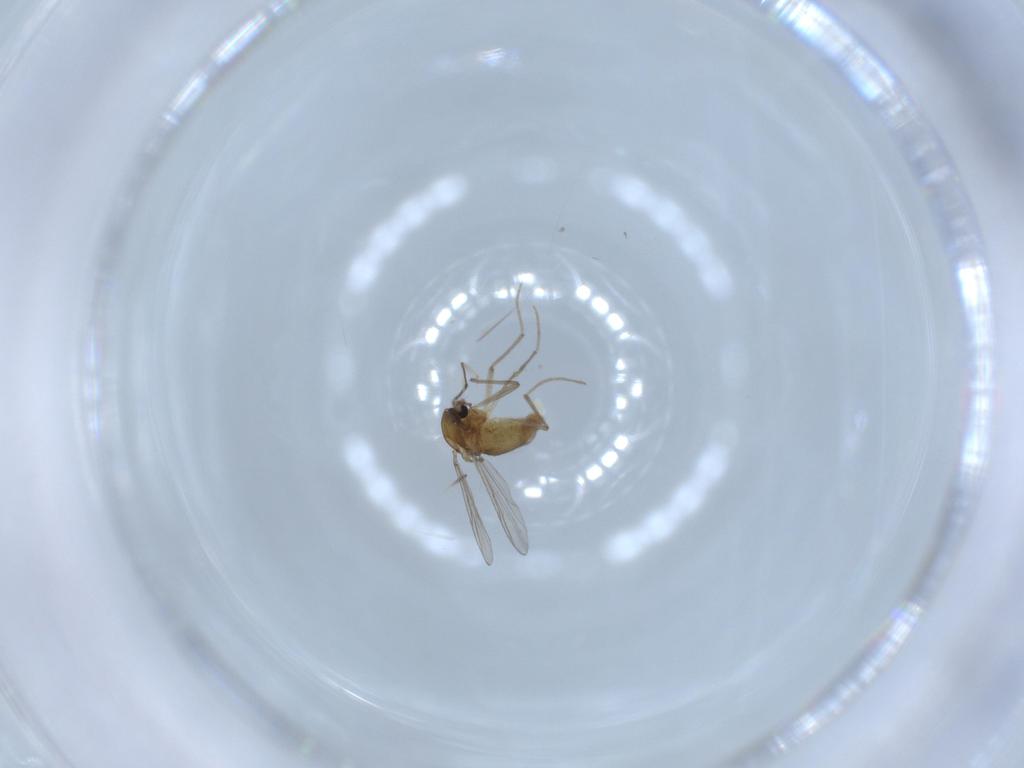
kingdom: Animalia
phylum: Arthropoda
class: Insecta
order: Diptera
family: Chironomidae
